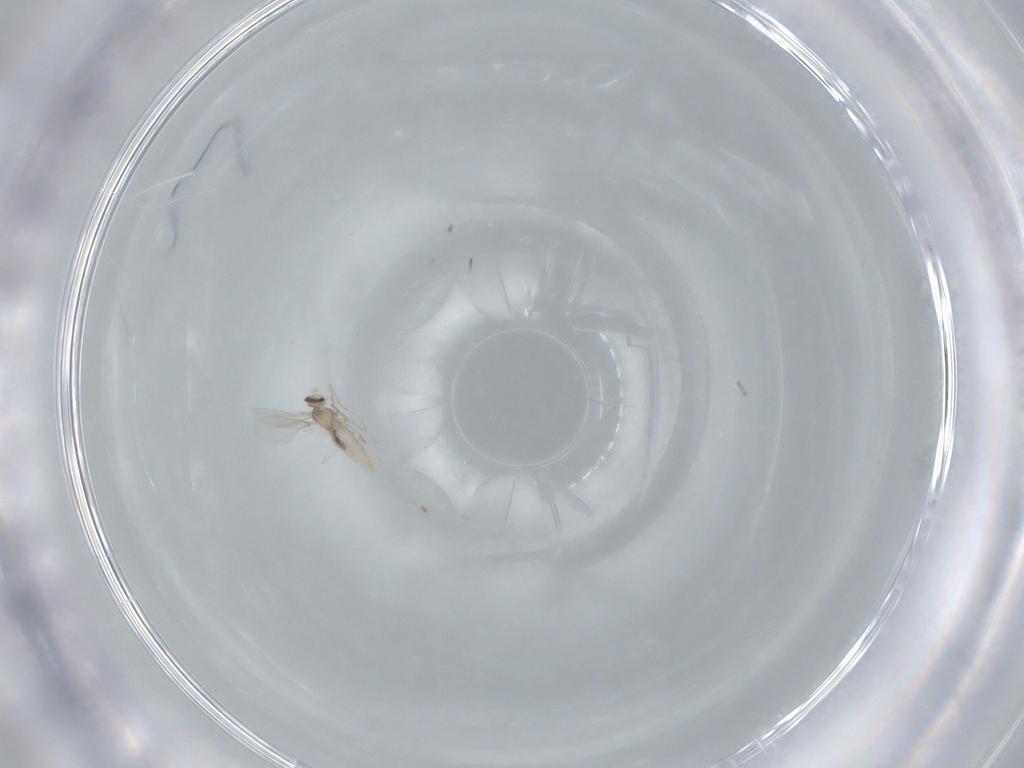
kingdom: Animalia
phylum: Arthropoda
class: Insecta
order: Diptera
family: Cecidomyiidae
